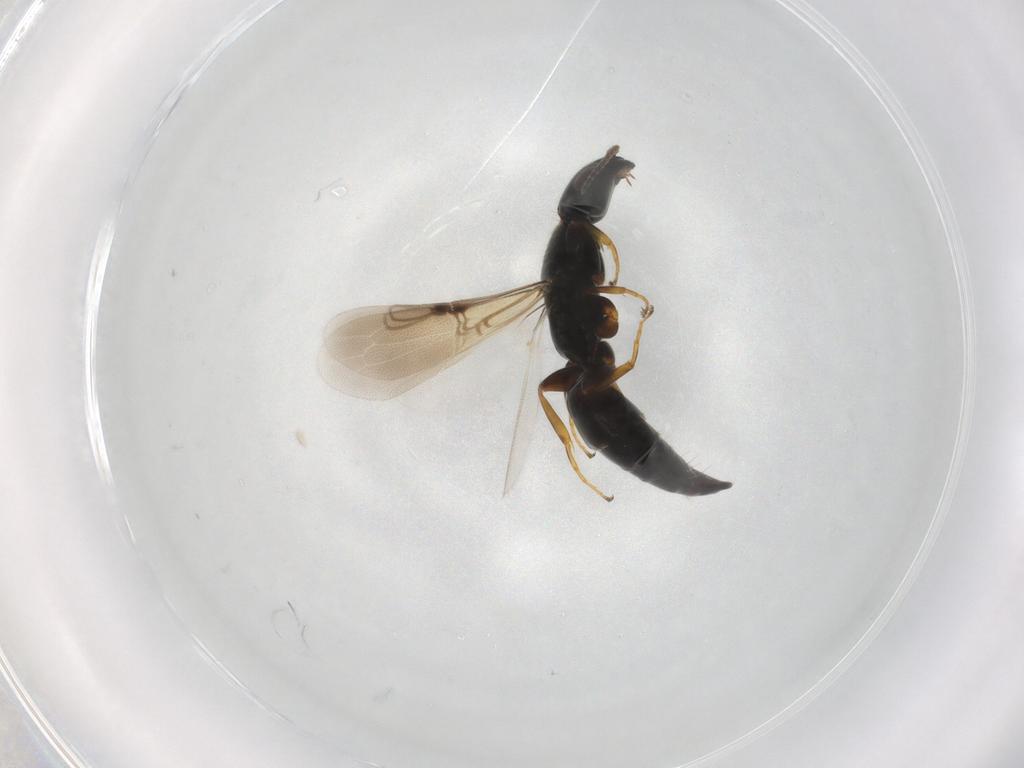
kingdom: Animalia
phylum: Arthropoda
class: Insecta
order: Hymenoptera
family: Bethylidae
